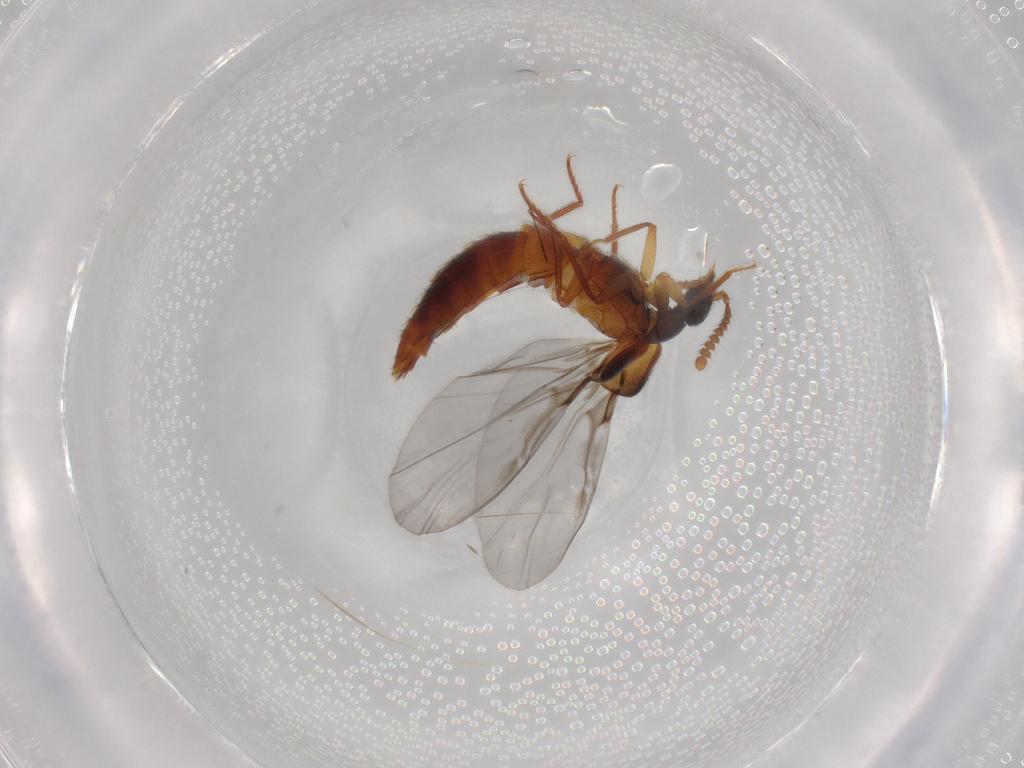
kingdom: Animalia
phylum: Arthropoda
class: Insecta
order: Coleoptera
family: Staphylinidae
